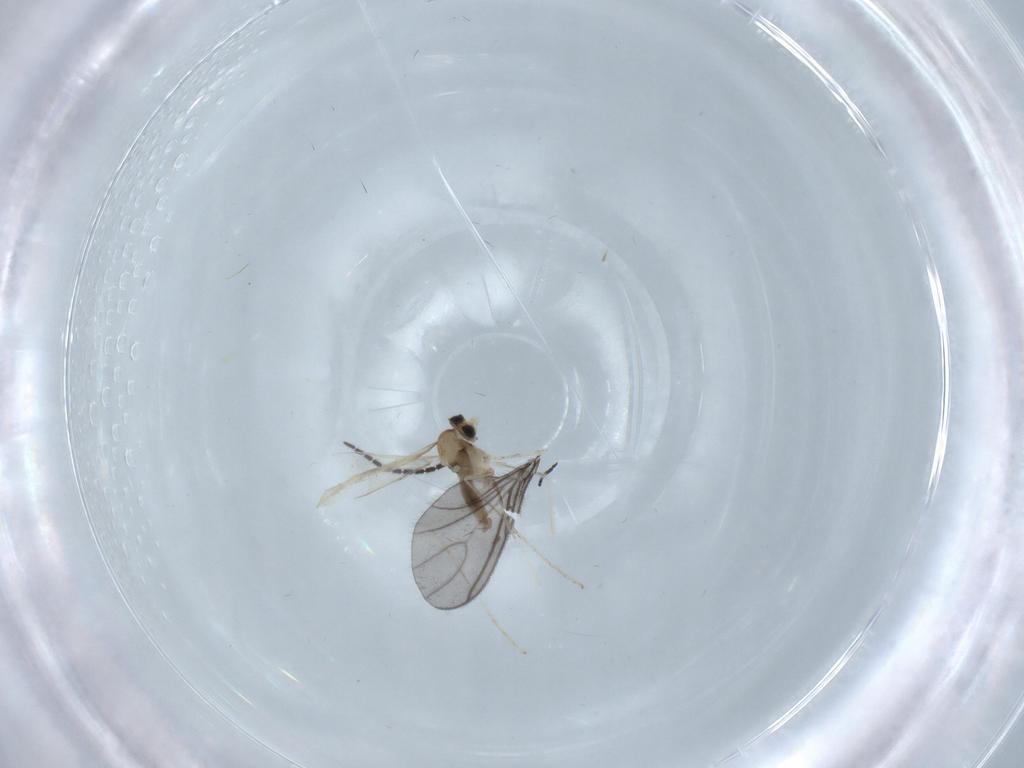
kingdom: Animalia
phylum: Arthropoda
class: Insecta
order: Diptera
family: Cecidomyiidae
